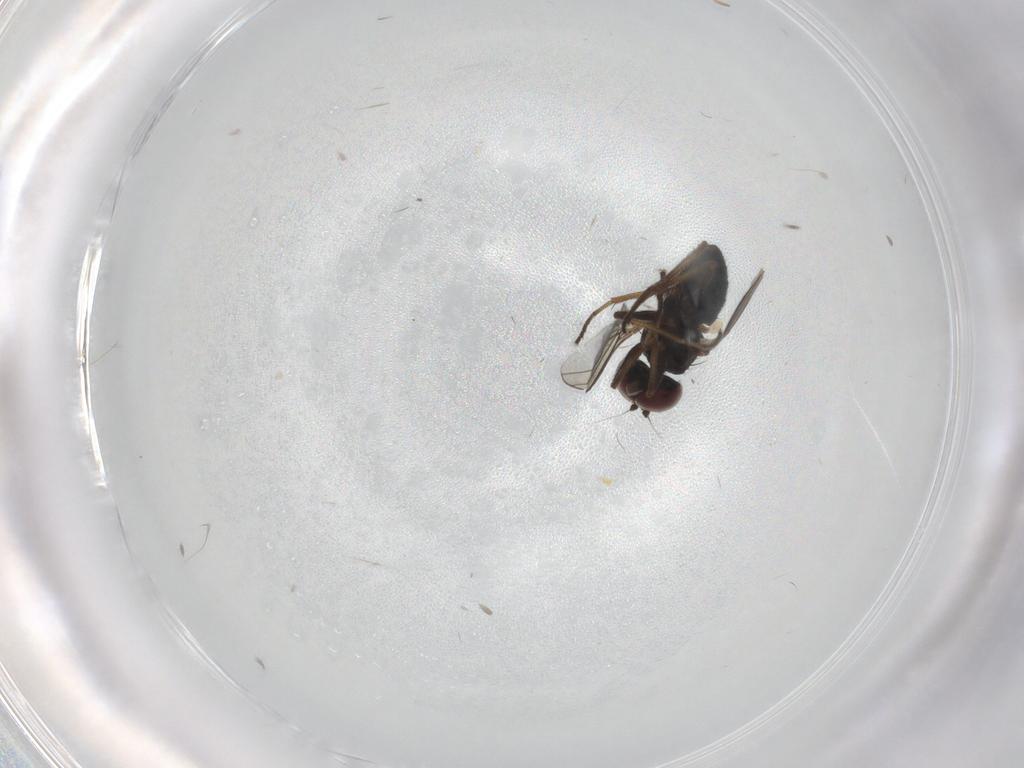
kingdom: Animalia
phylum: Arthropoda
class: Insecta
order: Diptera
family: Dolichopodidae
